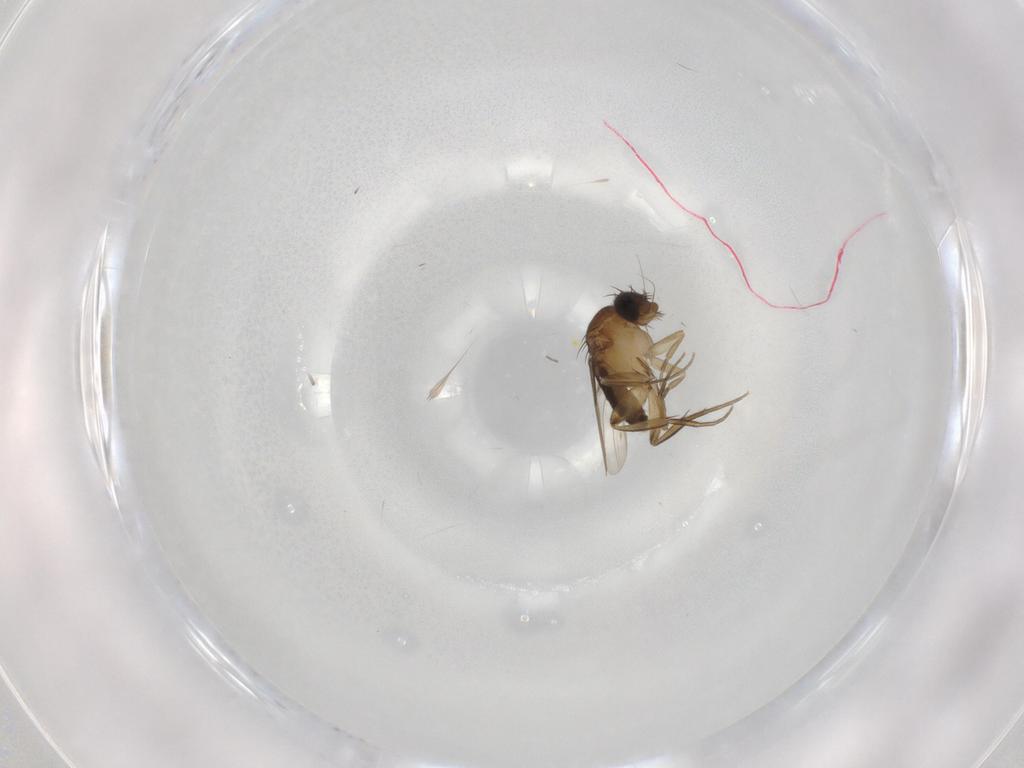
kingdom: Animalia
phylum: Arthropoda
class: Insecta
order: Diptera
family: Phoridae
